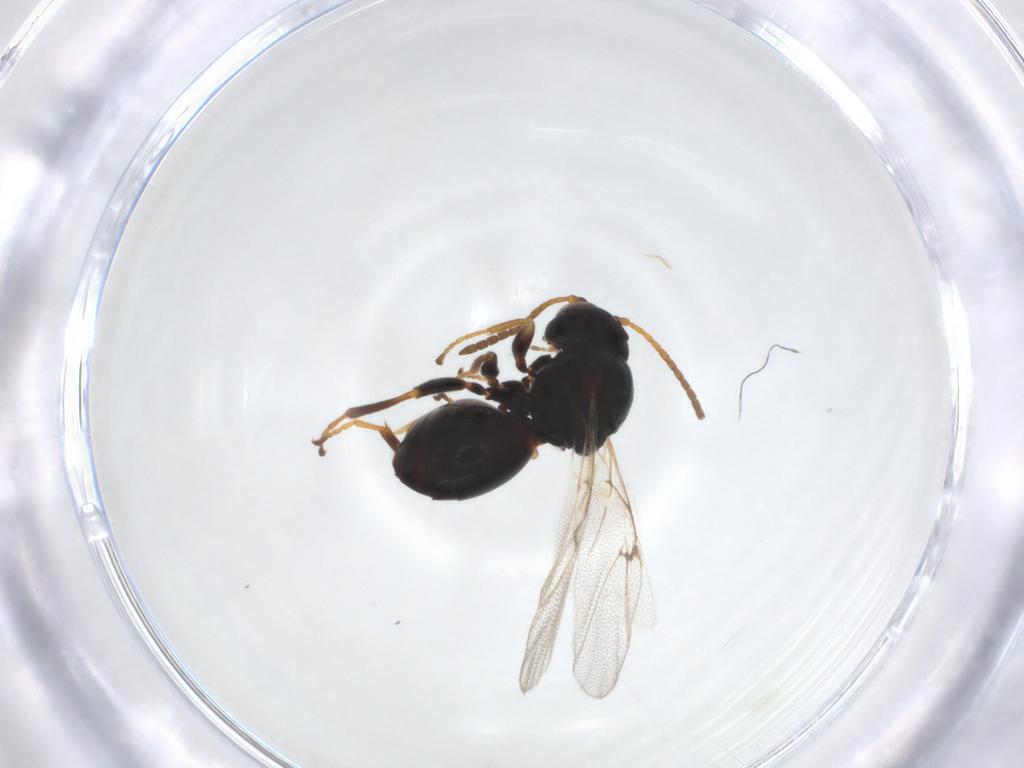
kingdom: Animalia
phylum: Arthropoda
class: Insecta
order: Hymenoptera
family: Cynipidae
